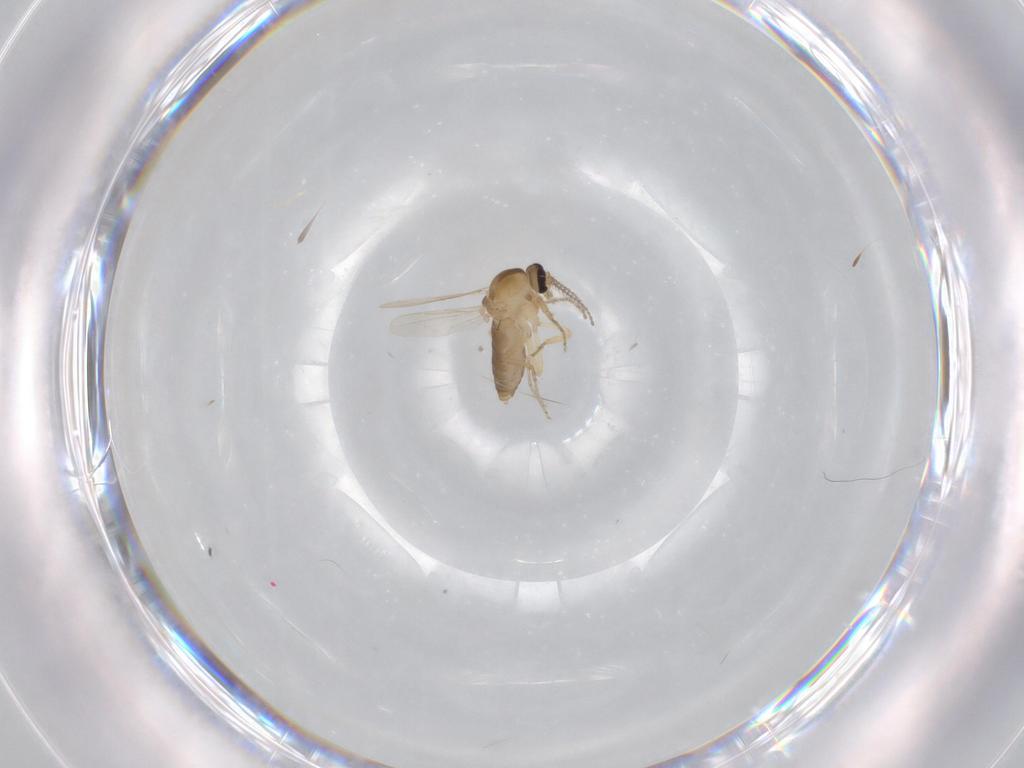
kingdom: Animalia
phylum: Arthropoda
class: Insecta
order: Diptera
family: Ceratopogonidae
